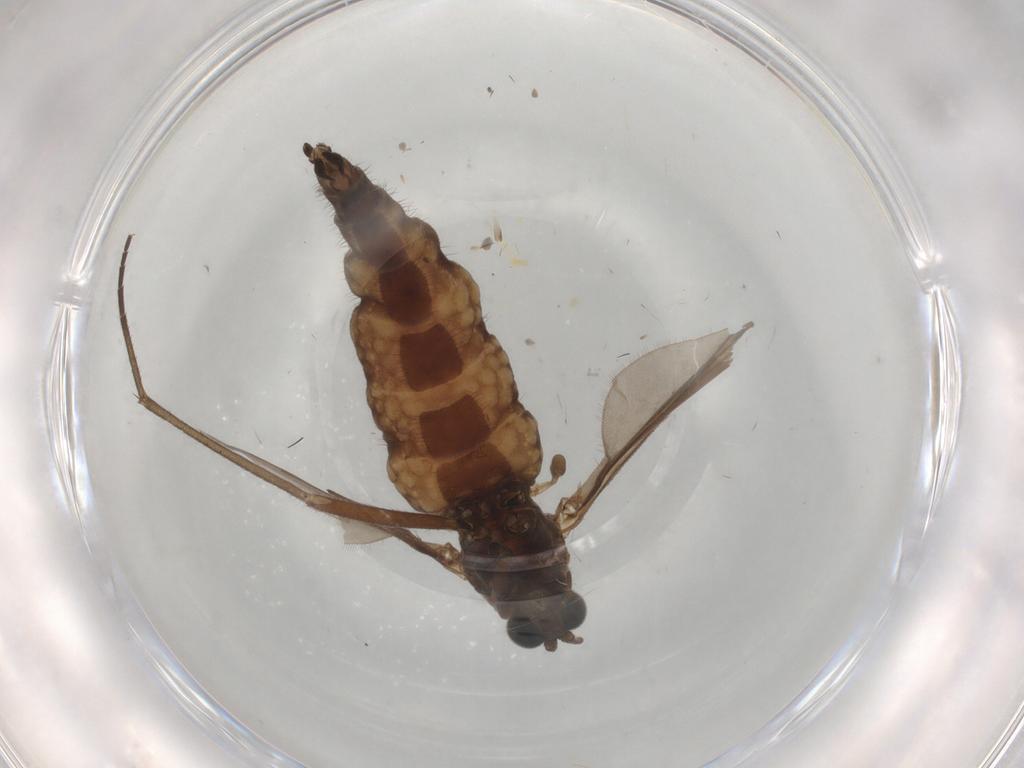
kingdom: Animalia
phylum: Arthropoda
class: Insecta
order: Diptera
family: Sciaridae
